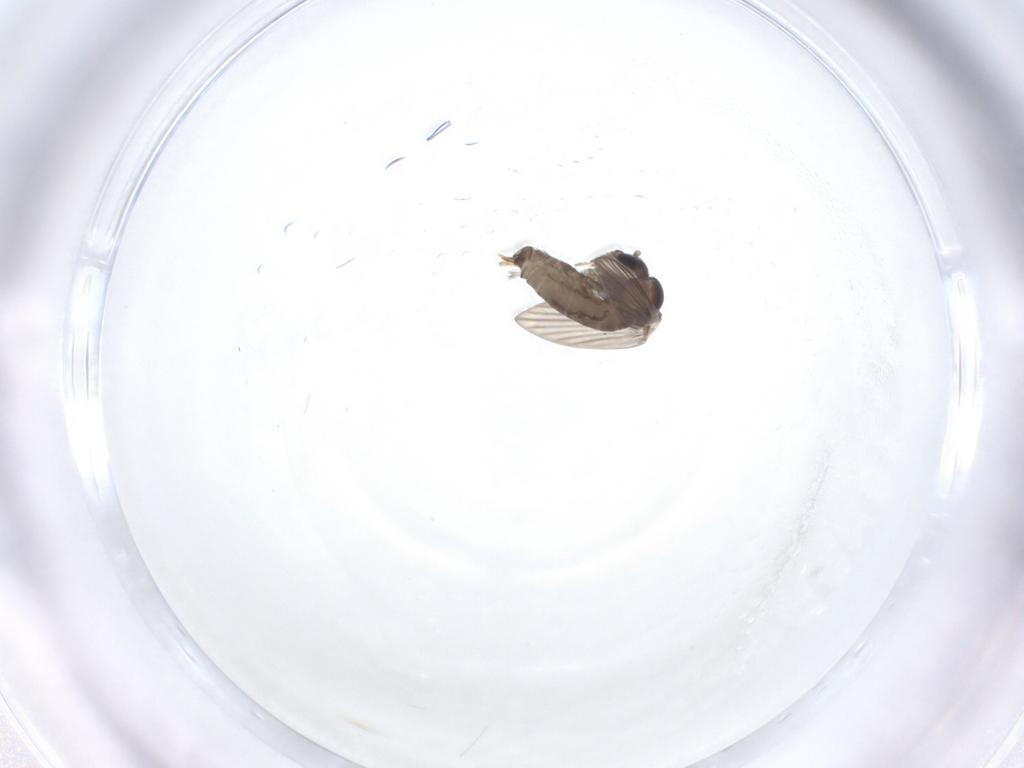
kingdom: Animalia
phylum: Arthropoda
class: Insecta
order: Diptera
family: Psychodidae
